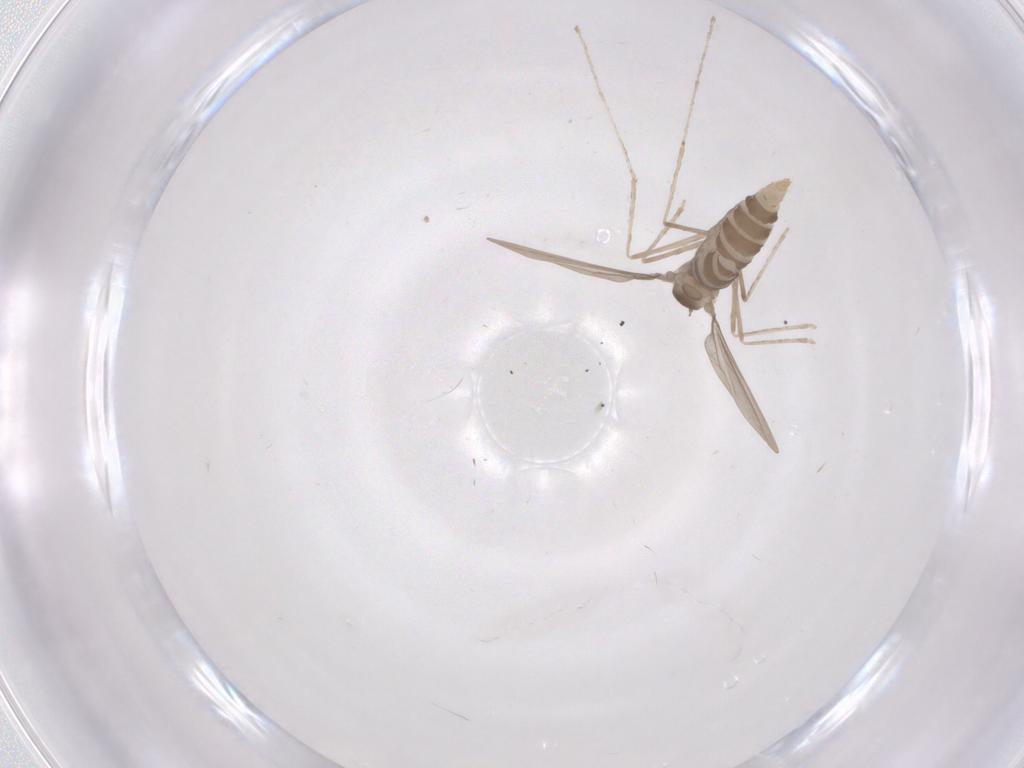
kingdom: Animalia
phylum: Arthropoda
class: Insecta
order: Diptera
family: Cecidomyiidae
